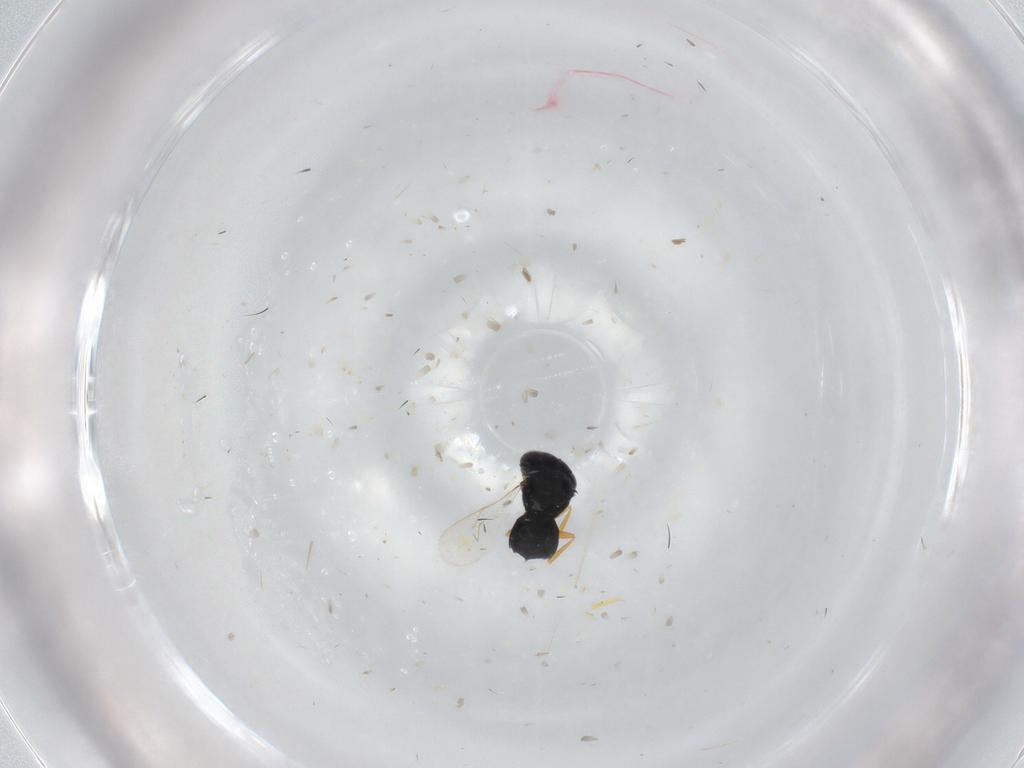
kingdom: Animalia
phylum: Arthropoda
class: Insecta
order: Hymenoptera
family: Scelionidae
